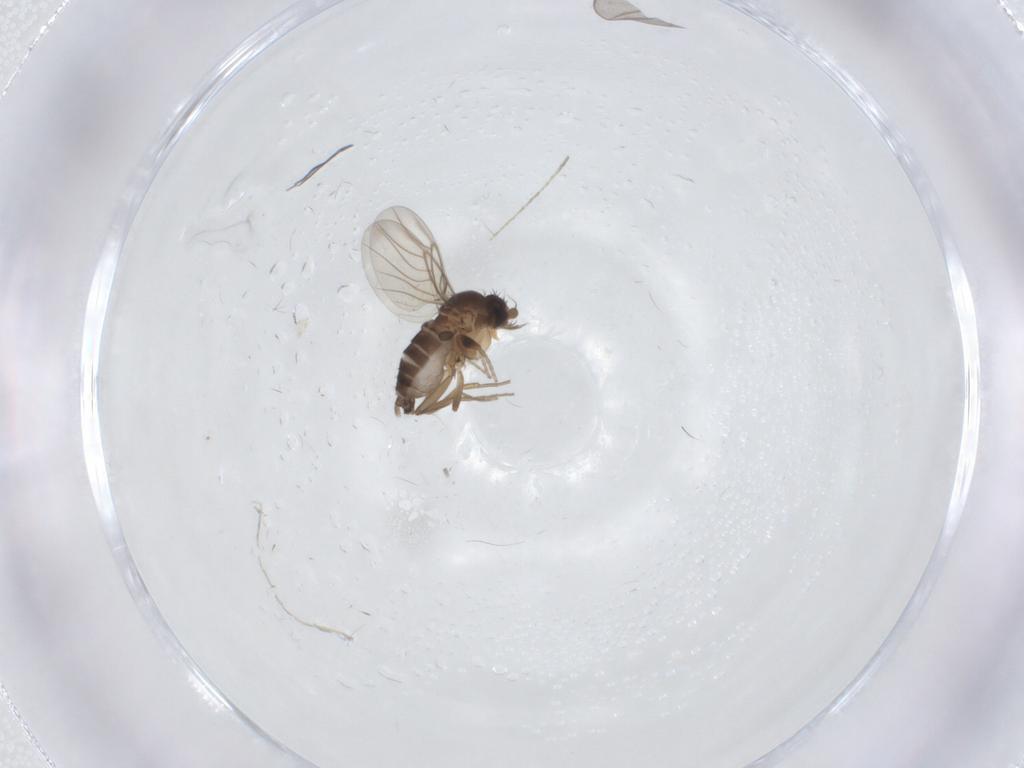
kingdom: Animalia
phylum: Arthropoda
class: Insecta
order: Diptera
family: Phoridae
